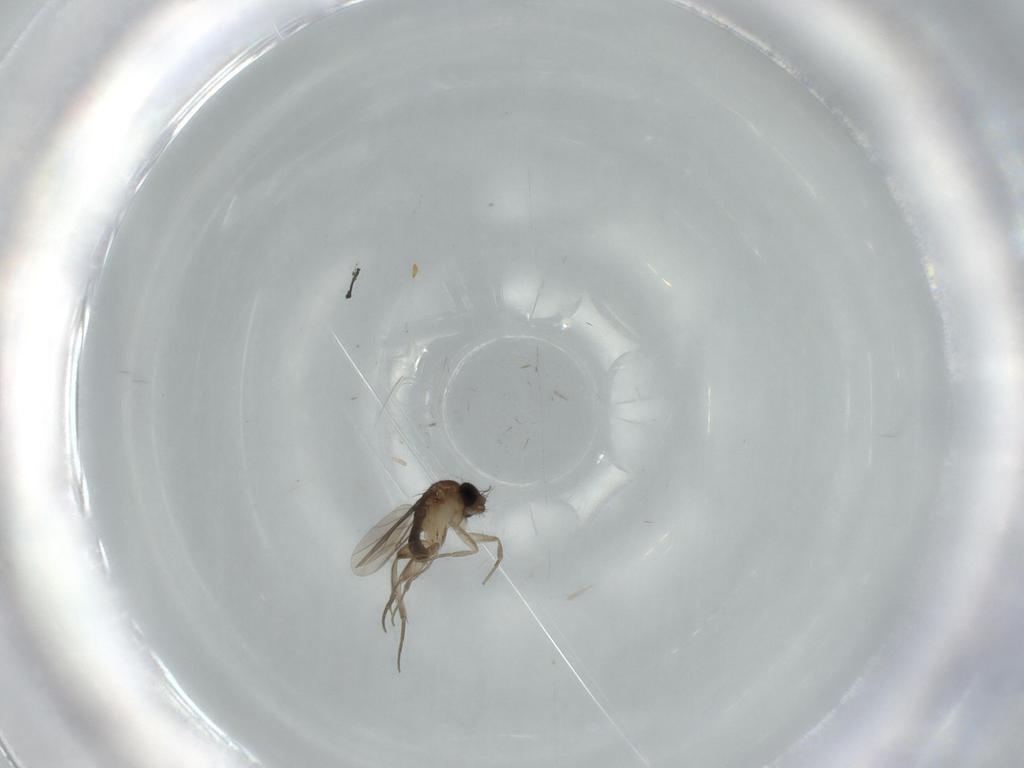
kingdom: Animalia
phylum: Arthropoda
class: Insecta
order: Diptera
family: Phoridae
